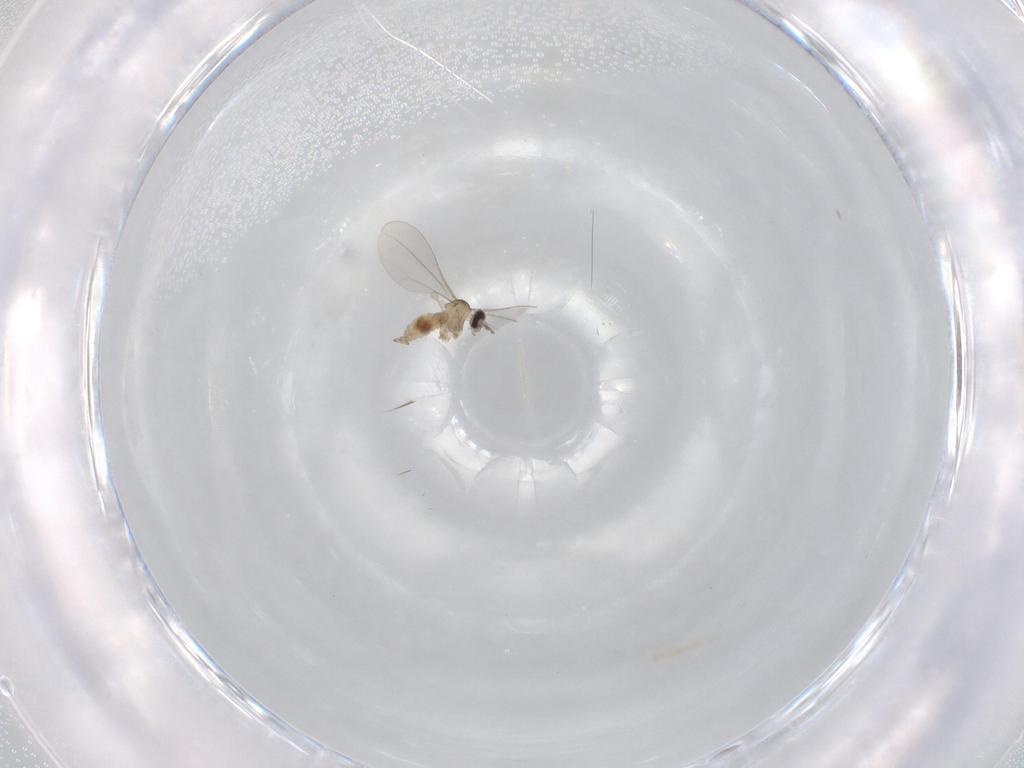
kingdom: Animalia
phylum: Arthropoda
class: Insecta
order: Diptera
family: Cecidomyiidae
